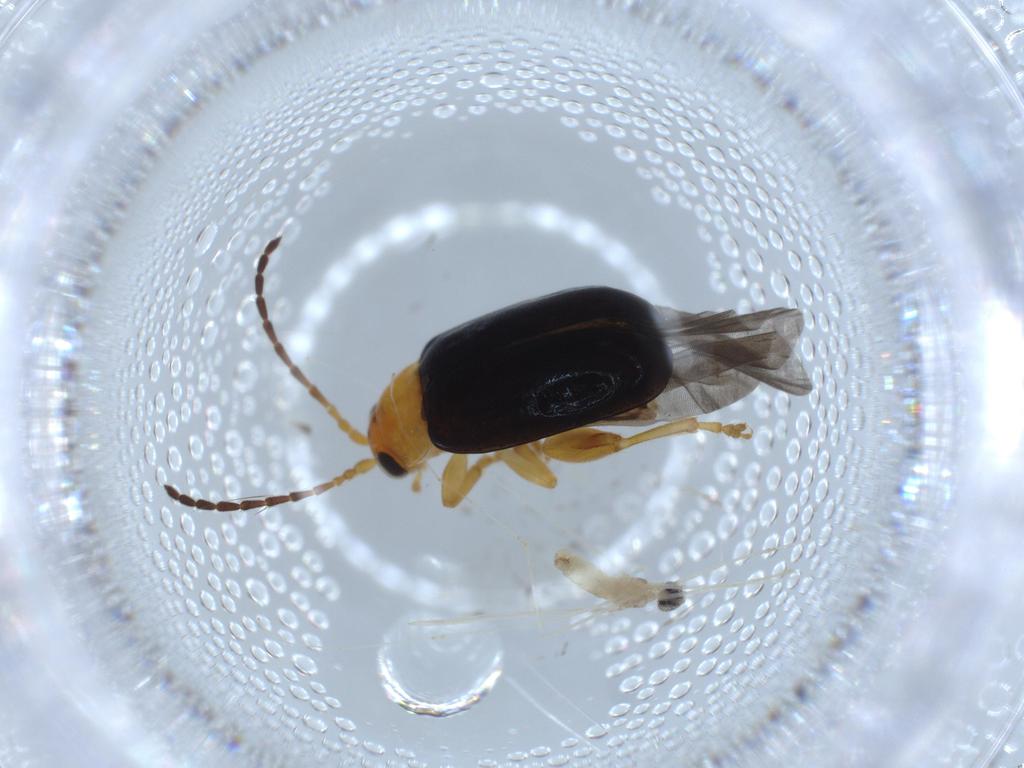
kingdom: Animalia
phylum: Arthropoda
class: Insecta
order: Coleoptera
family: Chrysomelidae
